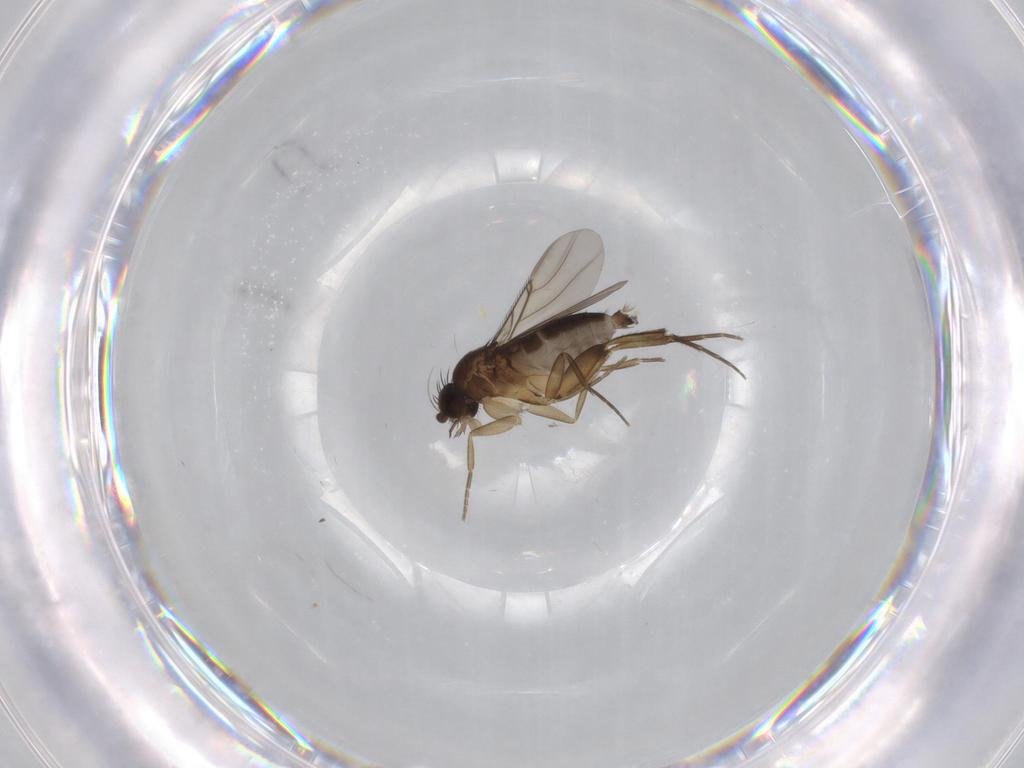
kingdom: Animalia
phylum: Arthropoda
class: Insecta
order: Diptera
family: Phoridae
